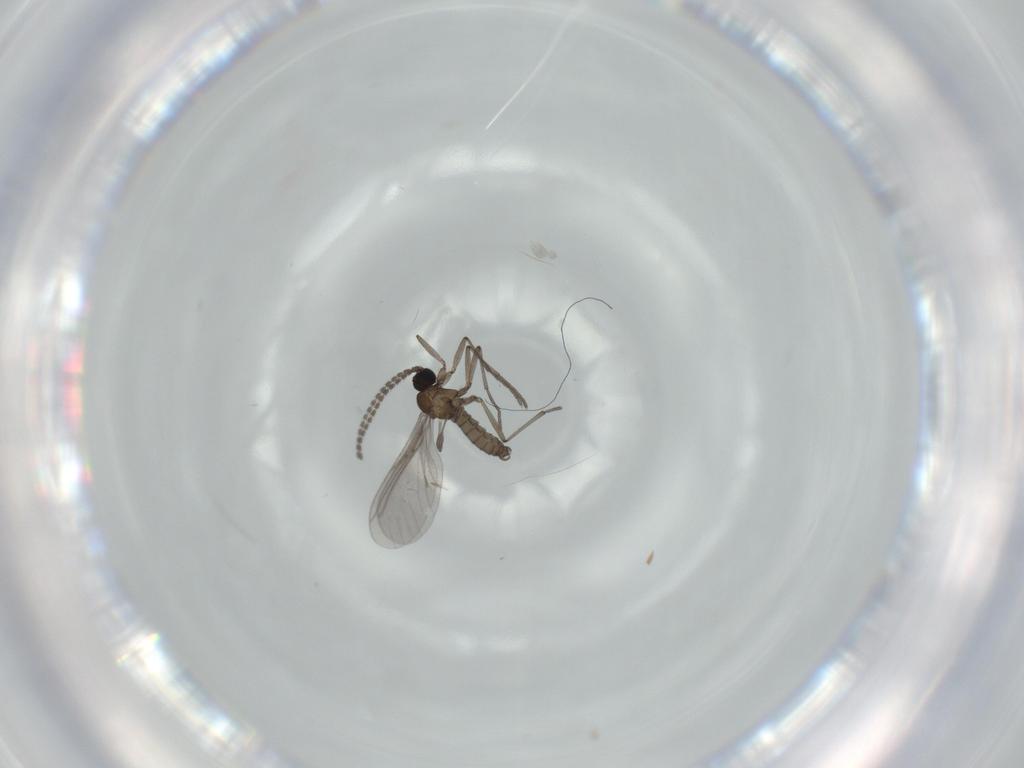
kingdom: Animalia
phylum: Arthropoda
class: Insecta
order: Diptera
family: Sciaridae
